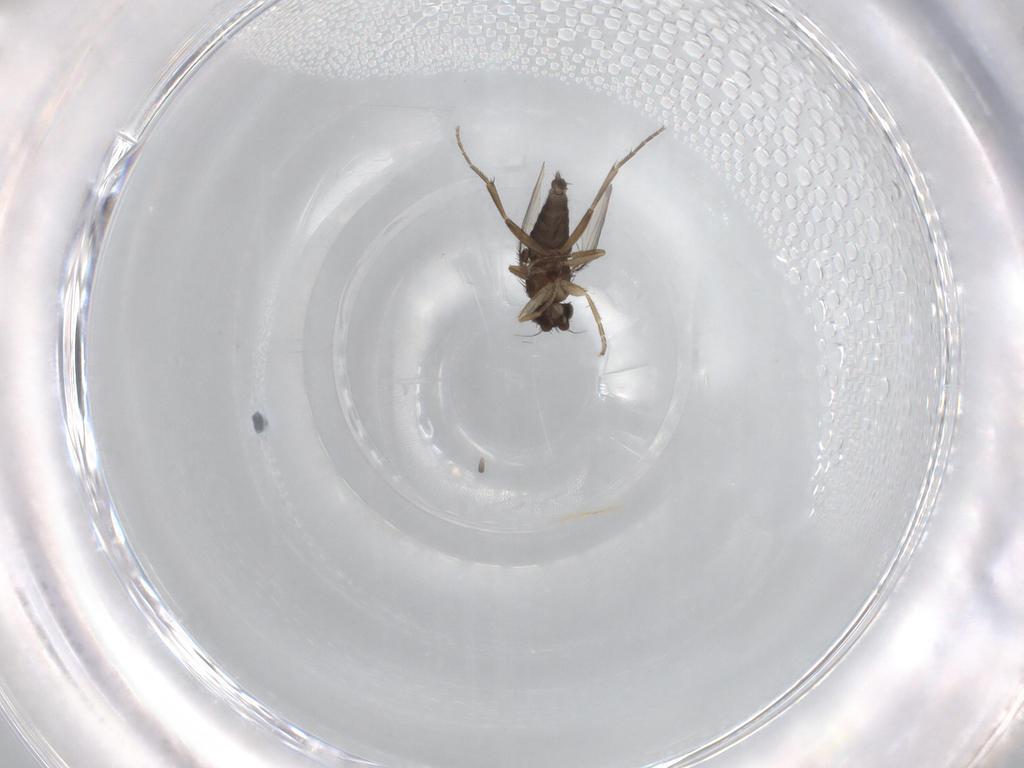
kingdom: Animalia
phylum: Arthropoda
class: Insecta
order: Diptera
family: Phoridae
